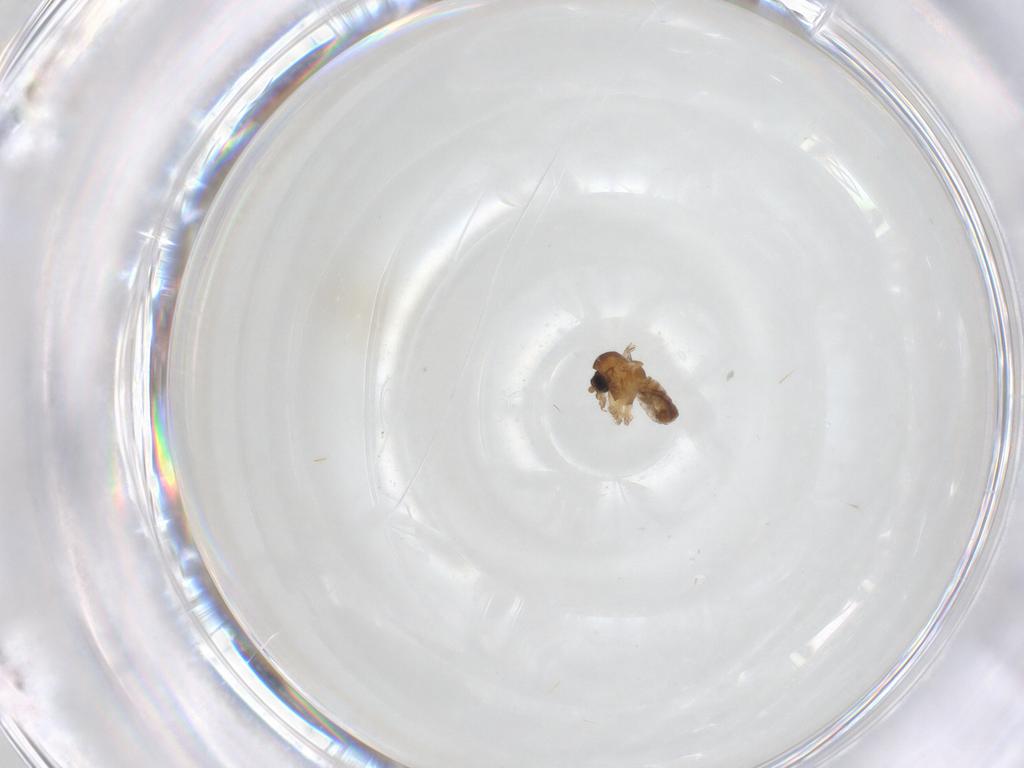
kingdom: Animalia
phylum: Arthropoda
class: Insecta
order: Diptera
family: Psychodidae
